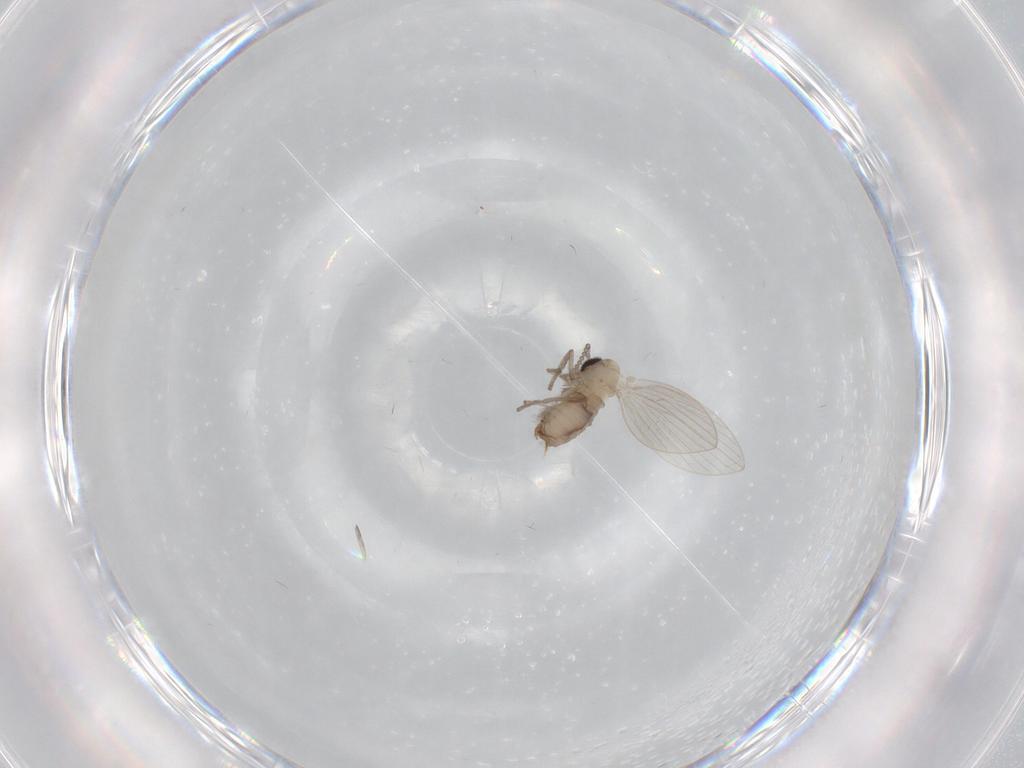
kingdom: Animalia
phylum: Arthropoda
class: Insecta
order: Diptera
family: Psychodidae
